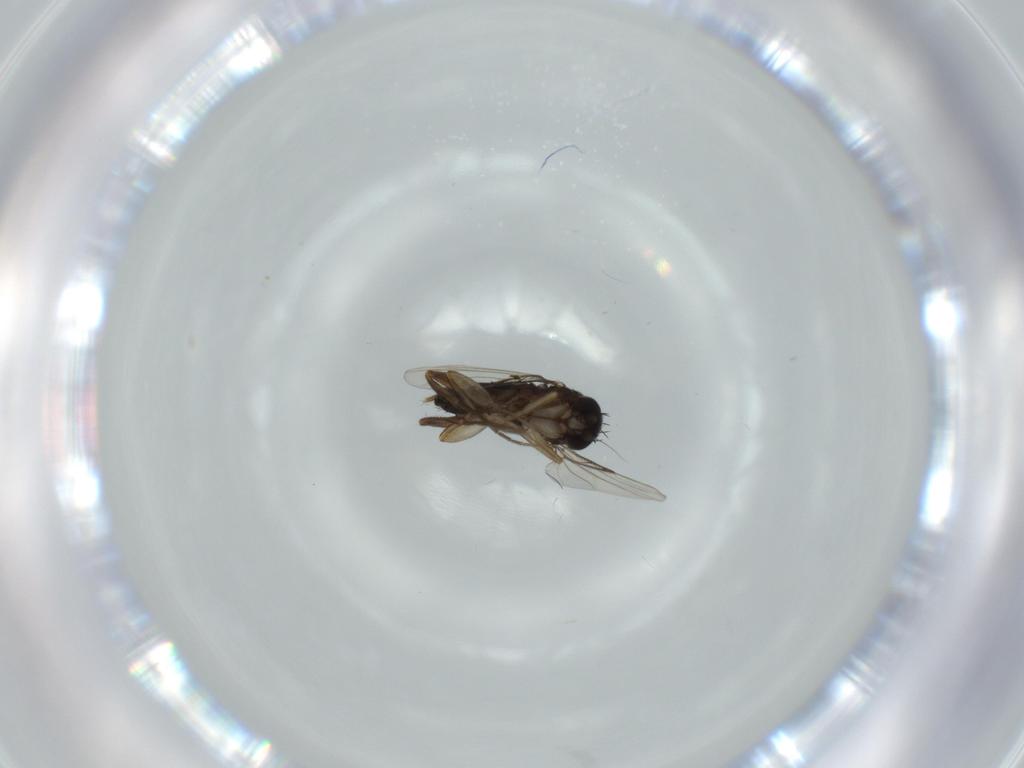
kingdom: Animalia
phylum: Arthropoda
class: Insecta
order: Diptera
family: Phoridae
